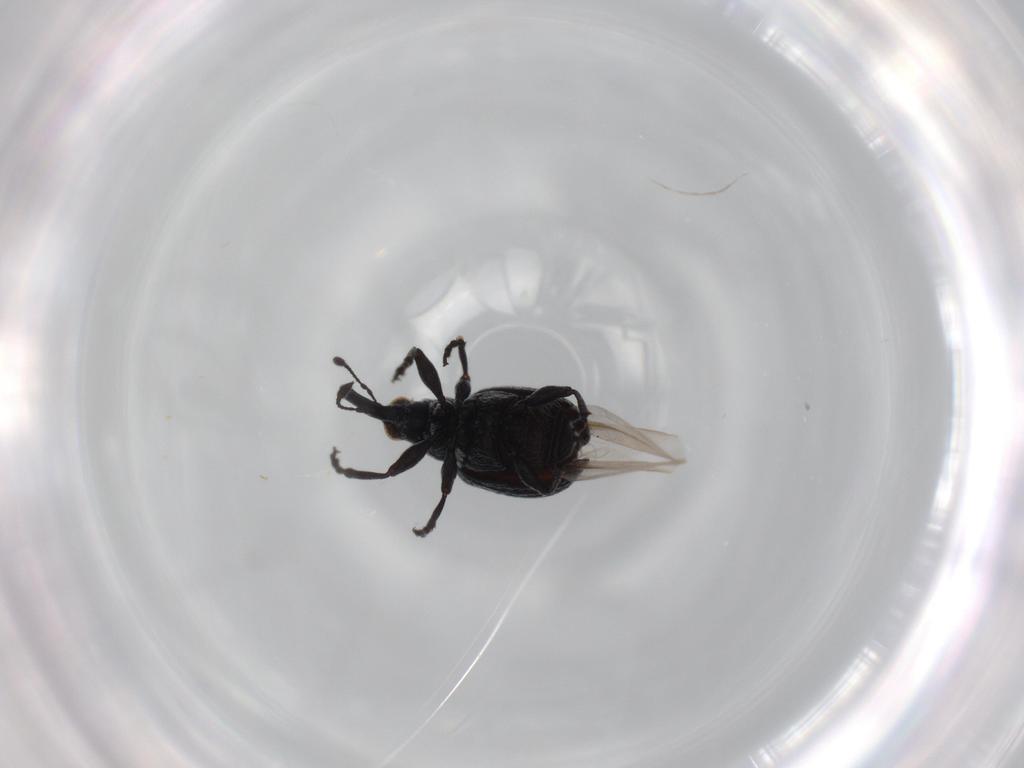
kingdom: Animalia
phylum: Arthropoda
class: Insecta
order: Coleoptera
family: Brentidae
